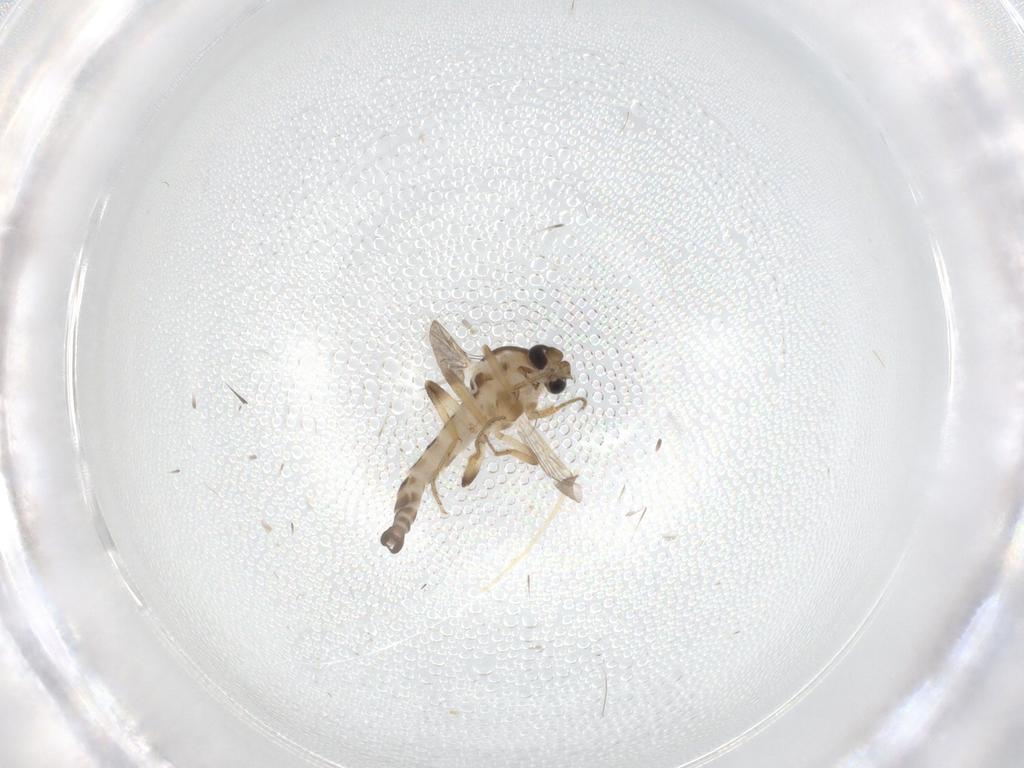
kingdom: Animalia
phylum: Arthropoda
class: Insecta
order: Diptera
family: Ceratopogonidae
